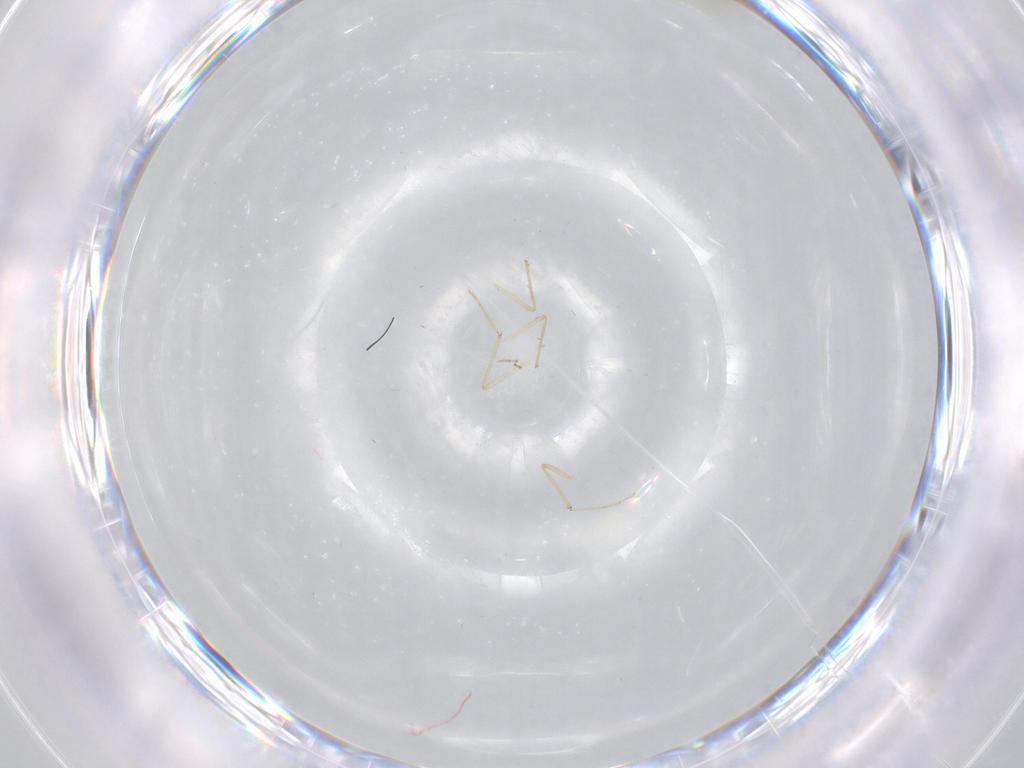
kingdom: Animalia
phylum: Arthropoda
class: Insecta
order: Diptera
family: Chironomidae
